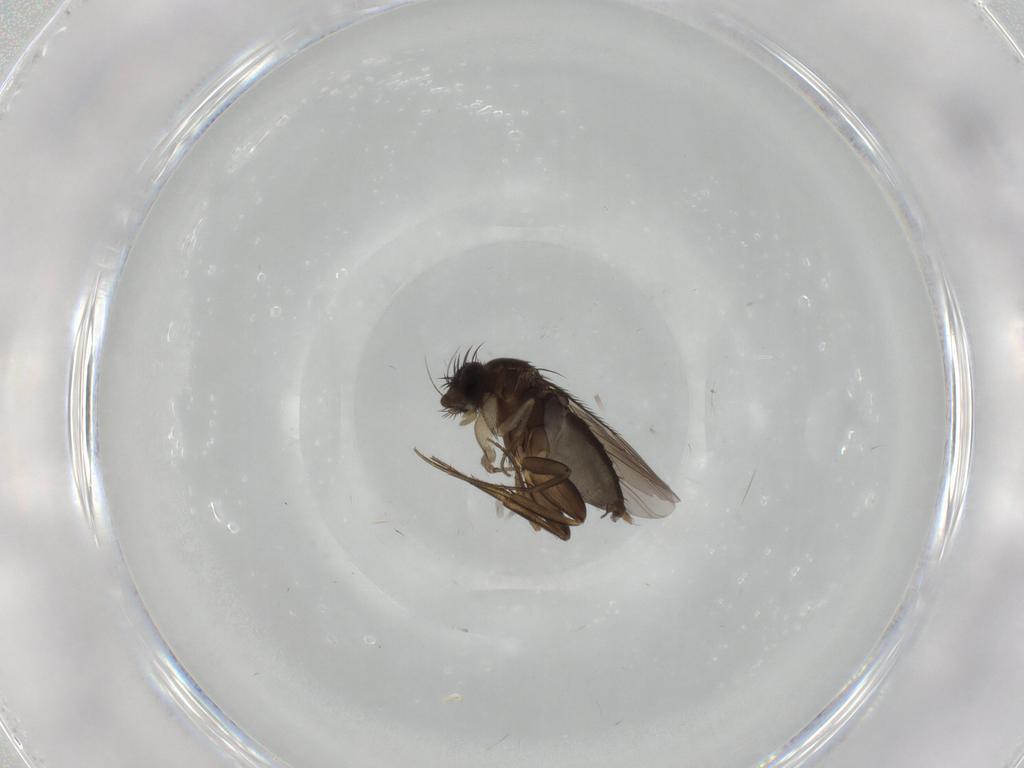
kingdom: Animalia
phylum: Arthropoda
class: Insecta
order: Diptera
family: Phoridae
